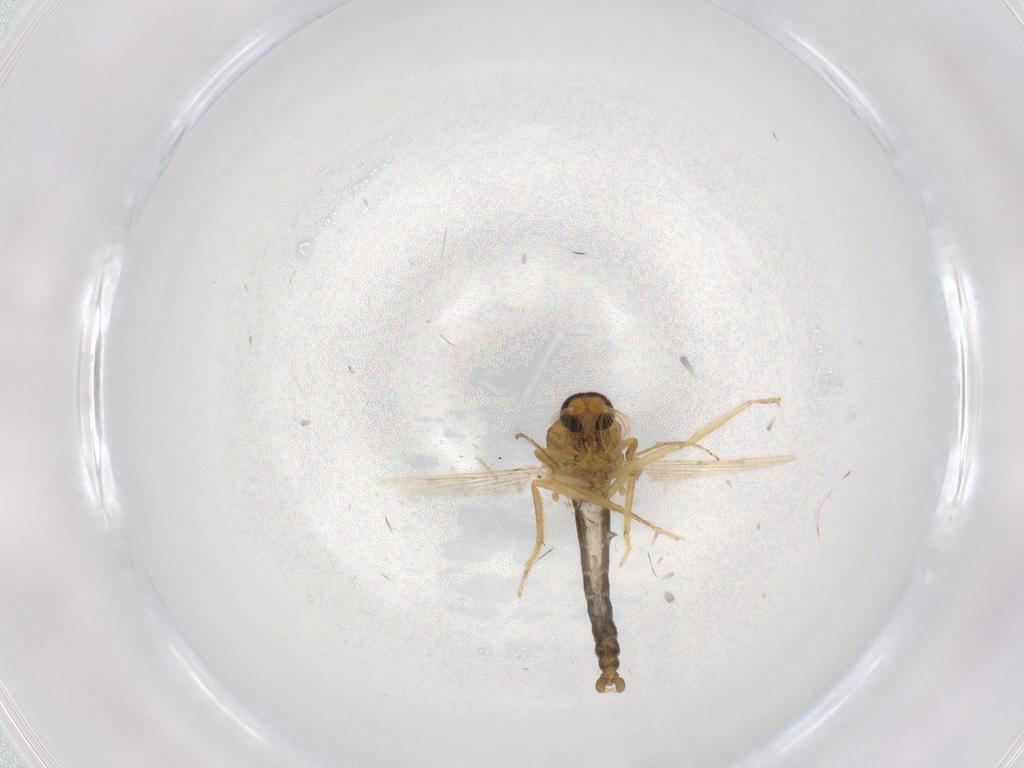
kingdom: Animalia
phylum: Arthropoda
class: Insecta
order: Diptera
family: Ceratopogonidae
